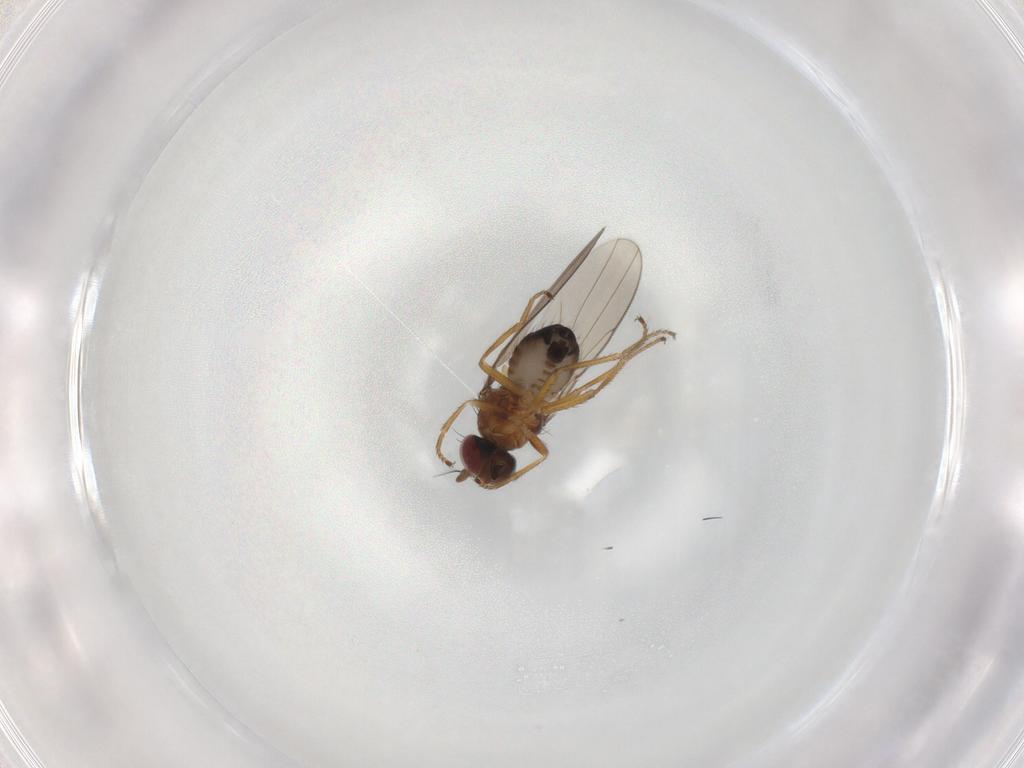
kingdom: Animalia
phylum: Arthropoda
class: Insecta
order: Diptera
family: Ephydridae
